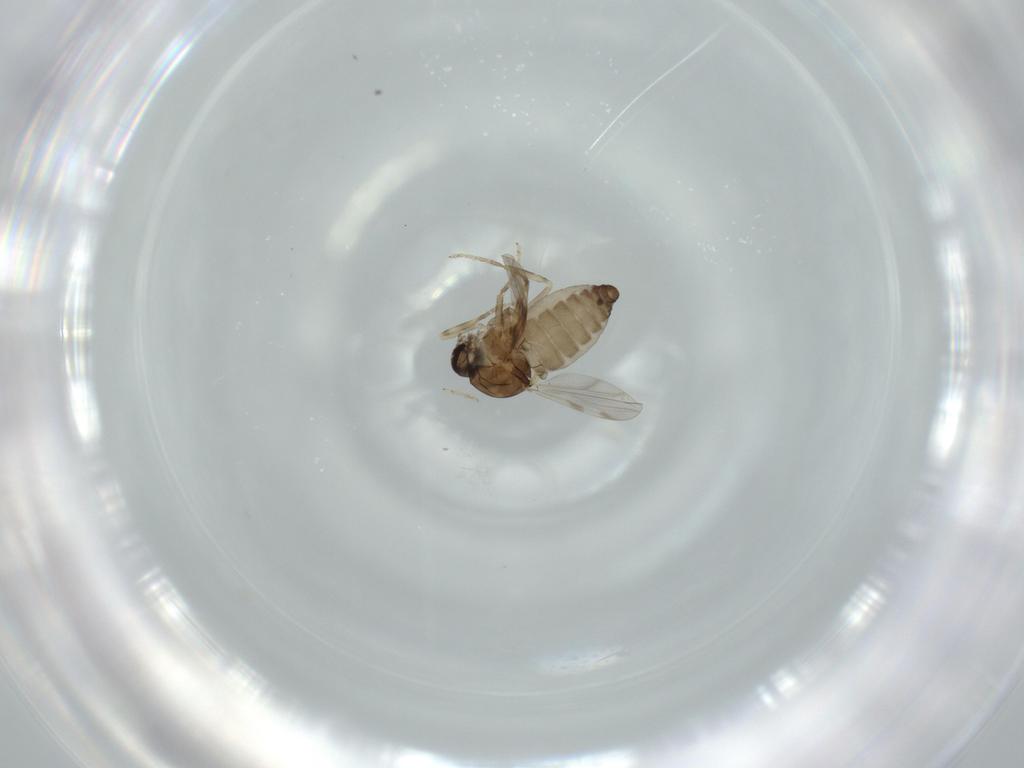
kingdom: Animalia
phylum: Arthropoda
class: Insecta
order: Diptera
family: Ceratopogonidae
